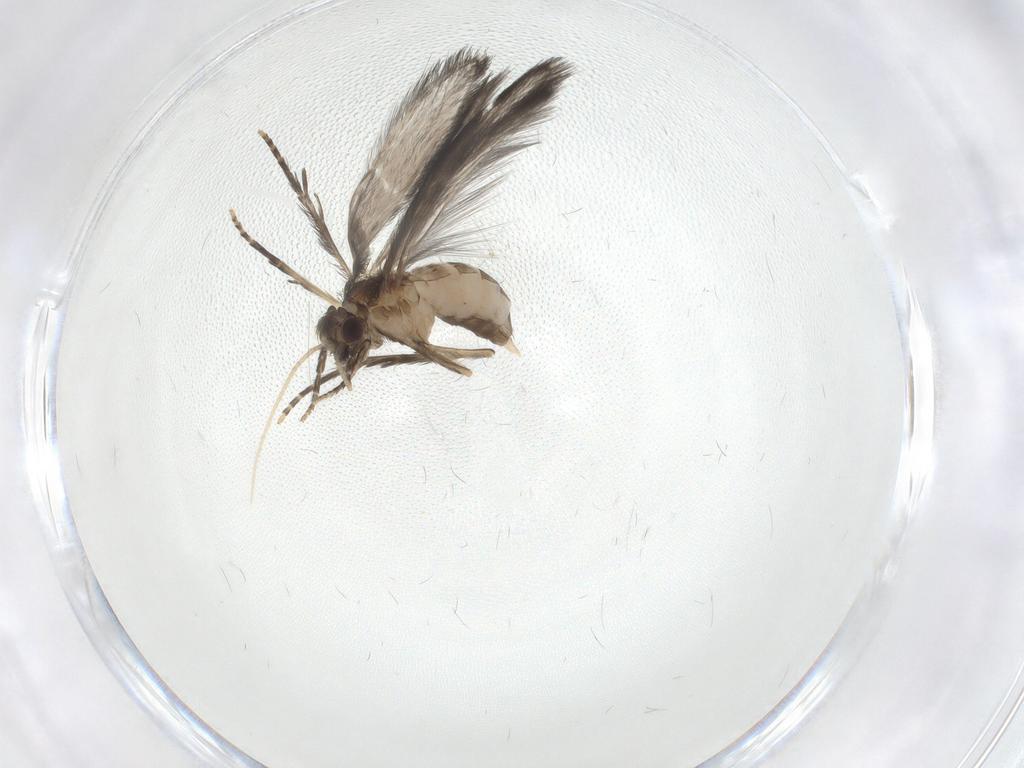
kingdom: Animalia
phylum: Arthropoda
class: Insecta
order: Trichoptera
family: Hydroptilidae
